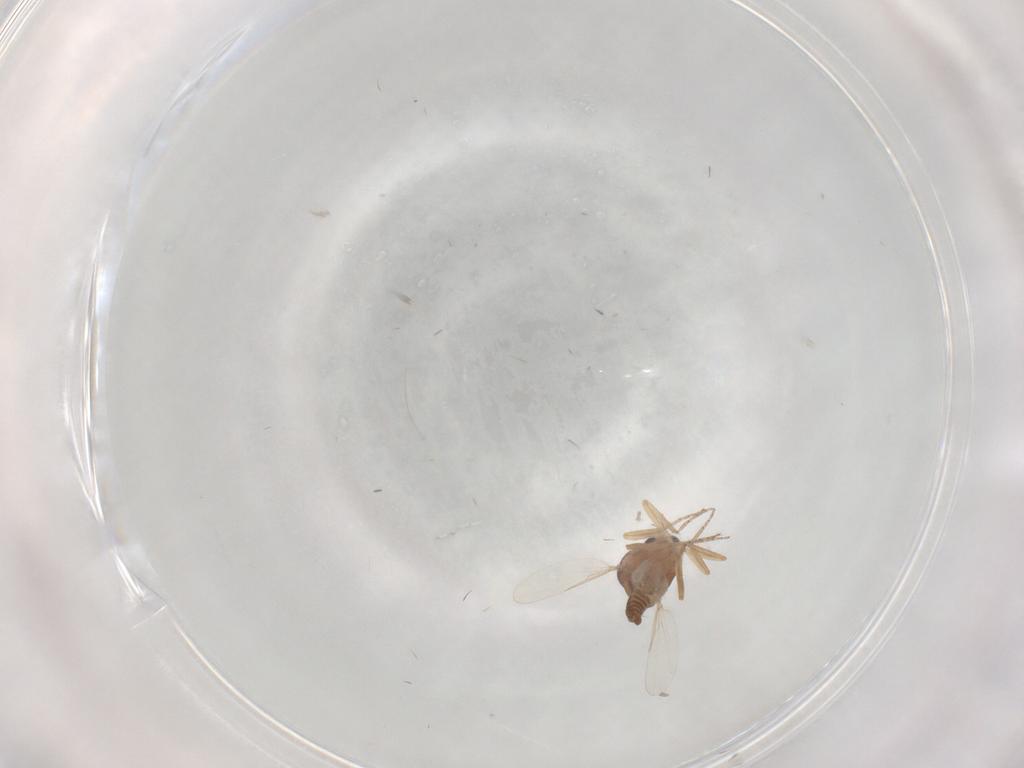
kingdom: Animalia
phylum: Arthropoda
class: Insecta
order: Diptera
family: Ceratopogonidae
